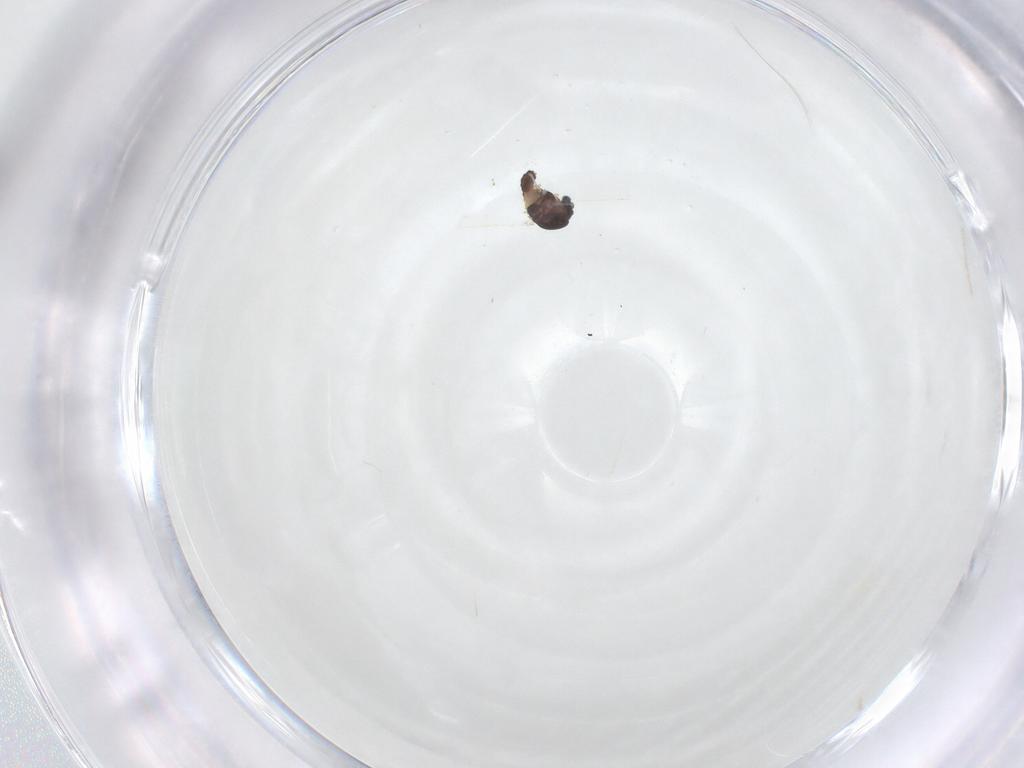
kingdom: Animalia
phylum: Arthropoda
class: Insecta
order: Diptera
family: Chironomidae
